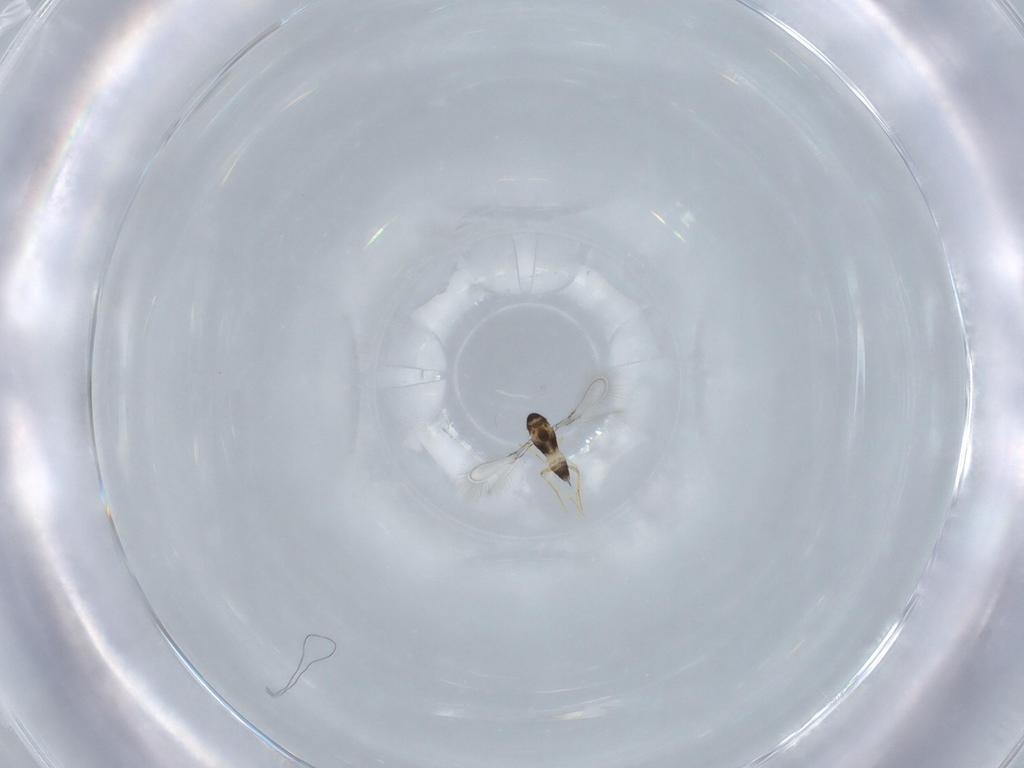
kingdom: Animalia
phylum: Arthropoda
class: Insecta
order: Hymenoptera
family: Mymaridae
